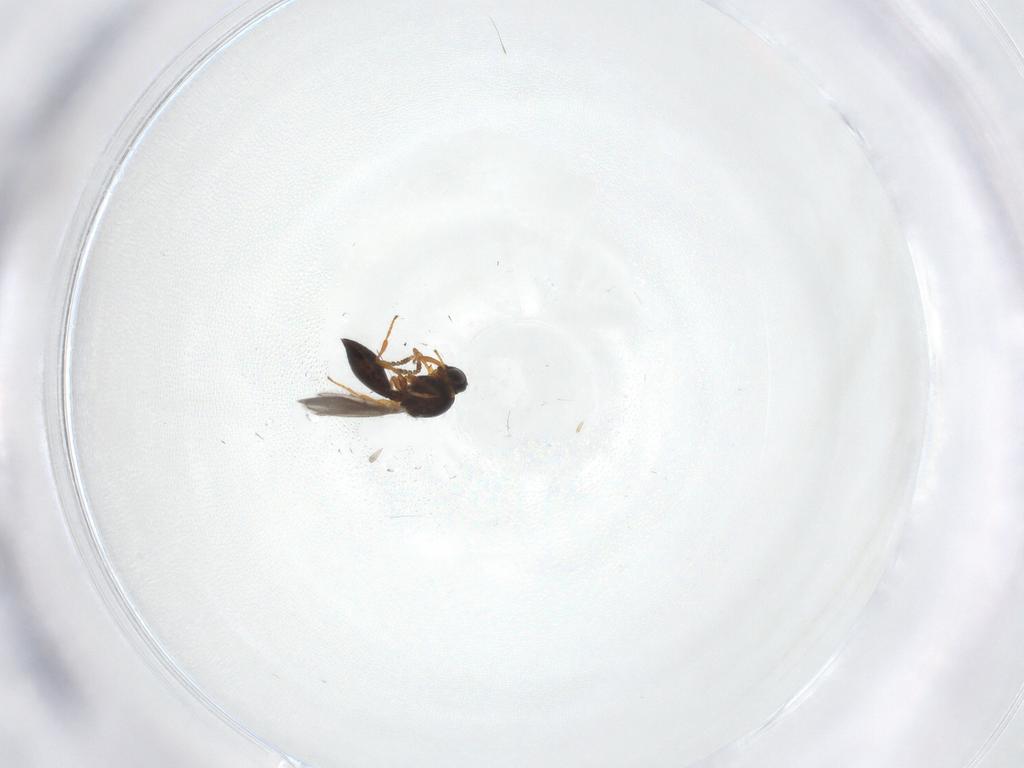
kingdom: Animalia
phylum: Arthropoda
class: Insecta
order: Hymenoptera
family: Platygastridae
